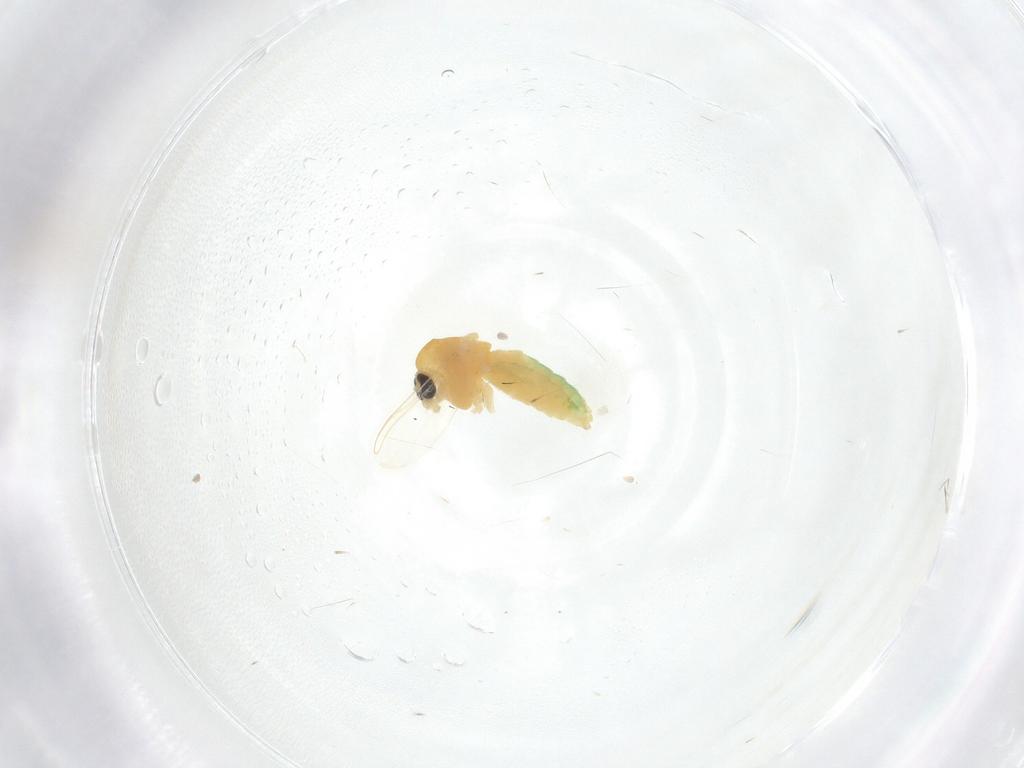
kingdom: Animalia
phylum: Arthropoda
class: Insecta
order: Diptera
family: Chironomidae
